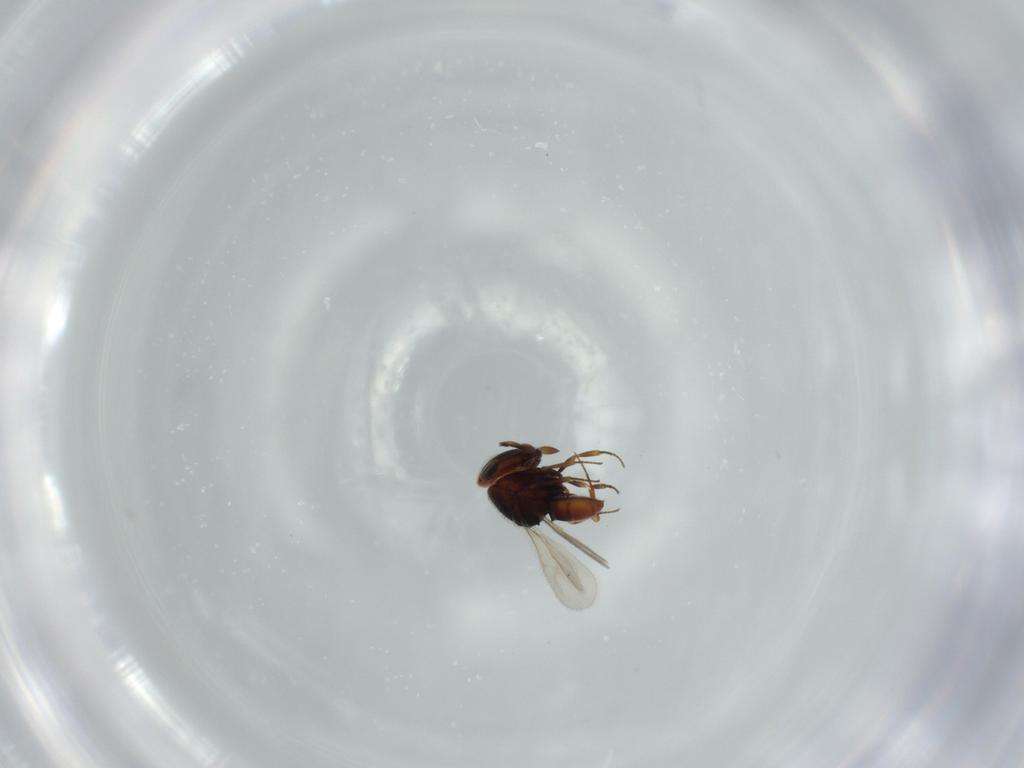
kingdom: Animalia
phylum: Arthropoda
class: Insecta
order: Hymenoptera
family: Scelionidae
